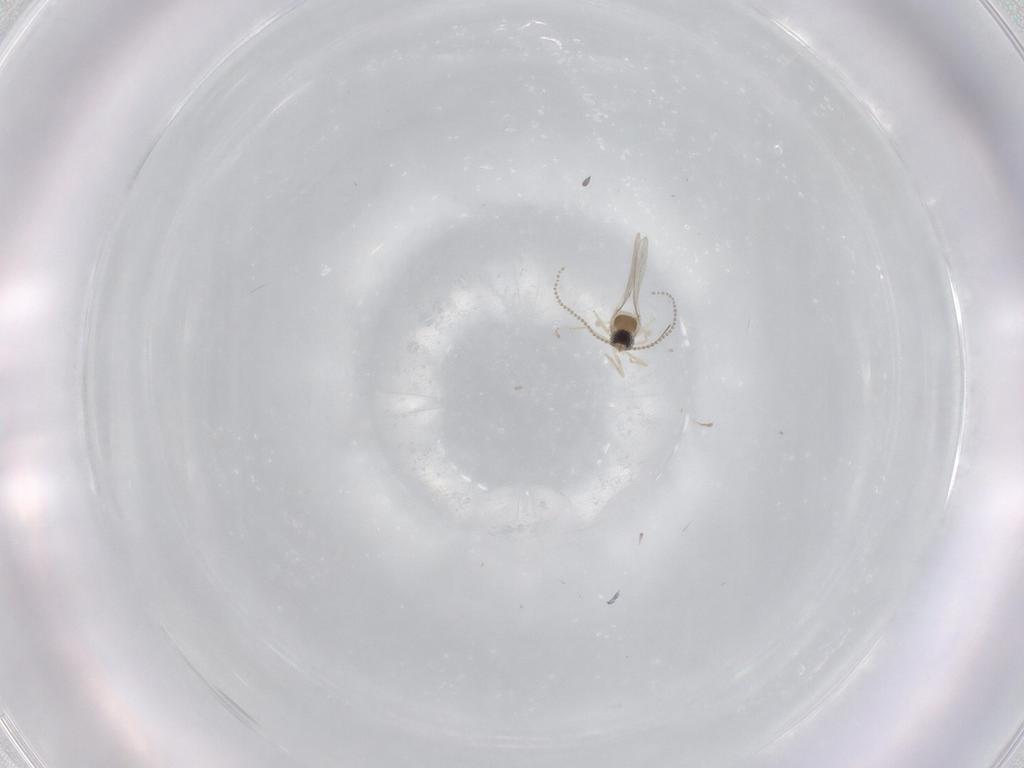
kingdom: Animalia
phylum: Arthropoda
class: Insecta
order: Diptera
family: Cecidomyiidae
